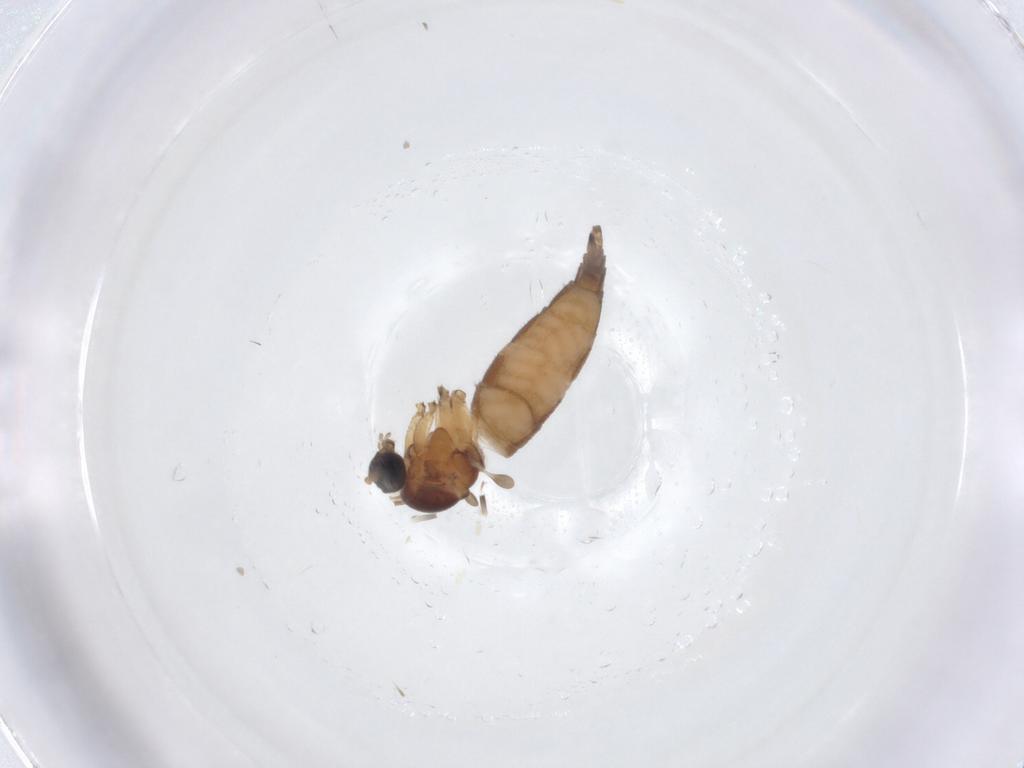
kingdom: Animalia
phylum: Arthropoda
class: Insecta
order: Diptera
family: Sciaridae
